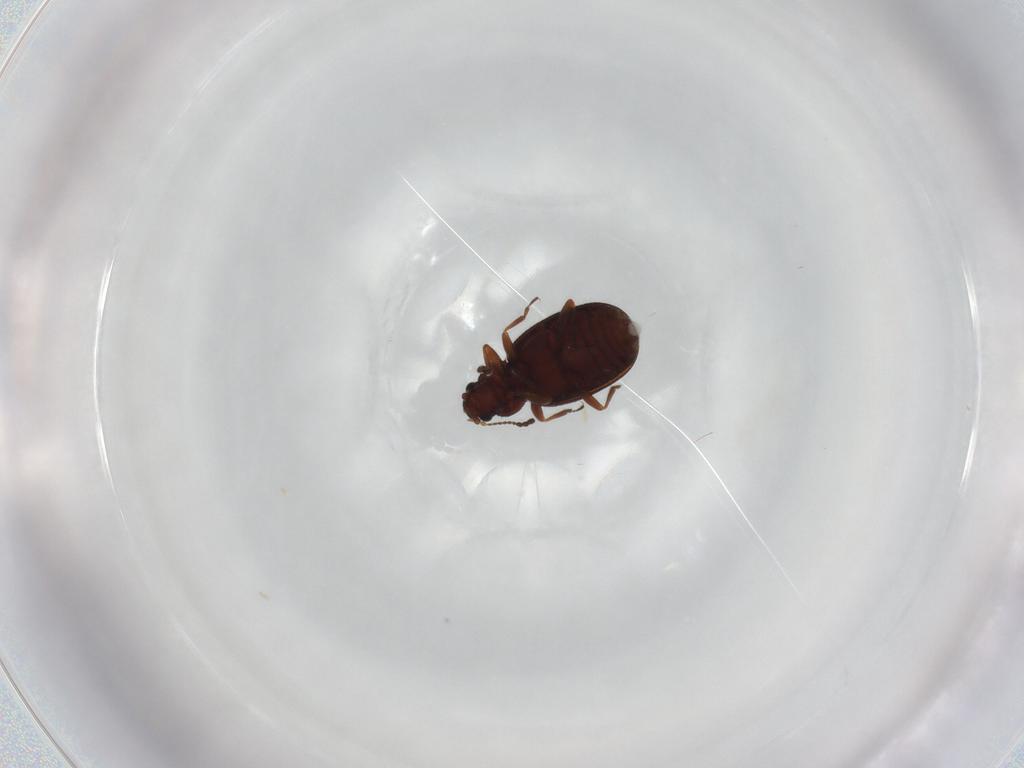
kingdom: Animalia
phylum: Arthropoda
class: Insecta
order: Coleoptera
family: Latridiidae
